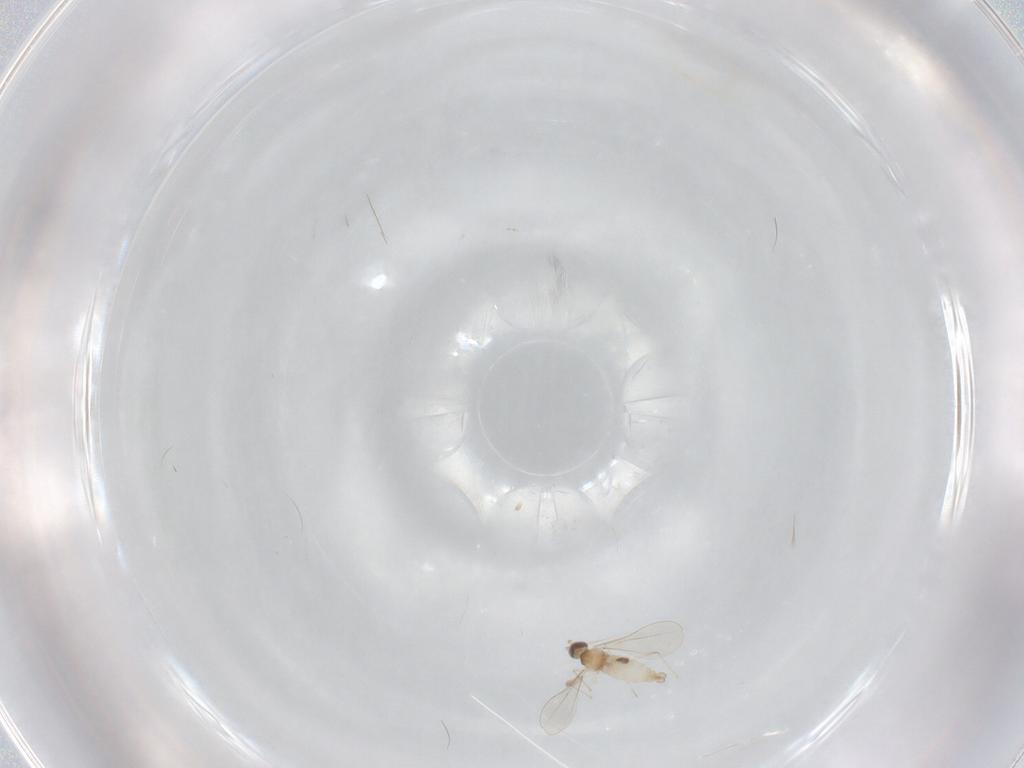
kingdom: Animalia
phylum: Arthropoda
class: Insecta
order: Diptera
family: Cecidomyiidae
